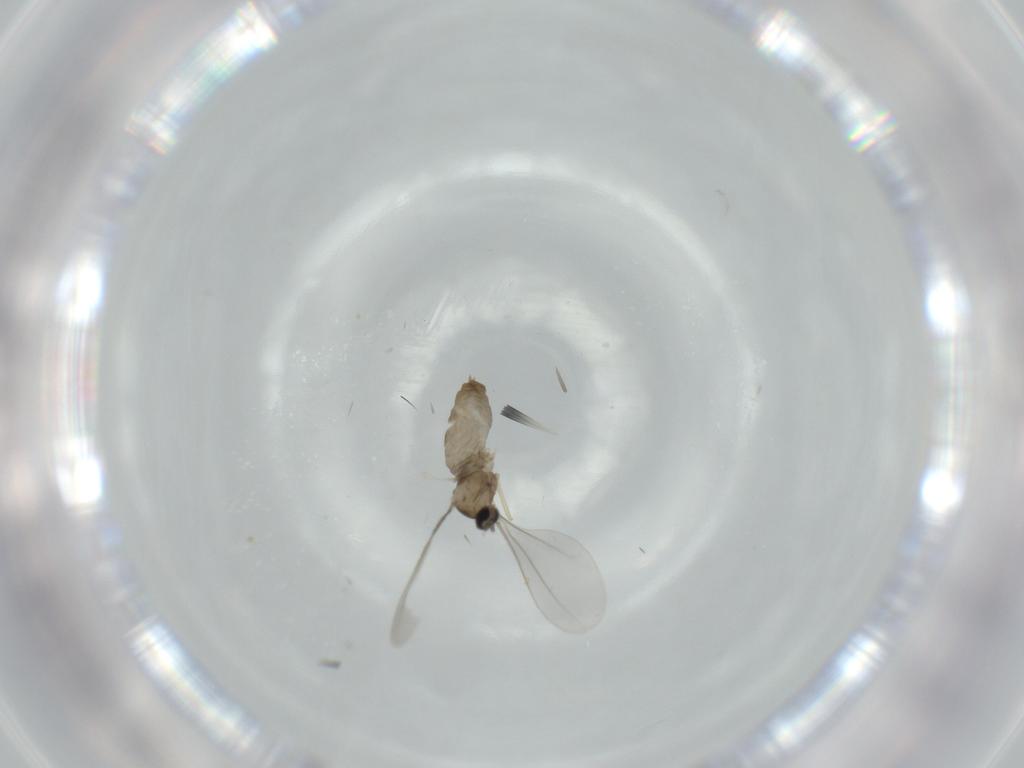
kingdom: Animalia
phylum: Arthropoda
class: Insecta
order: Diptera
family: Dolichopodidae
